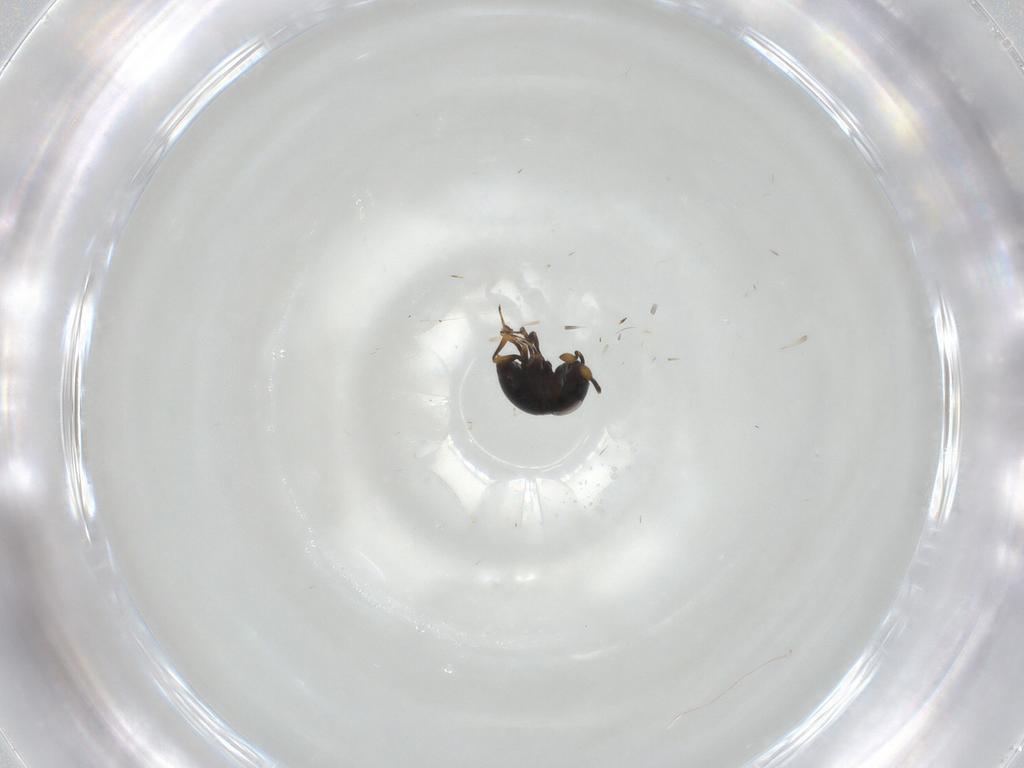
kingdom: Animalia
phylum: Arthropoda
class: Insecta
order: Hymenoptera
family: Scelionidae
